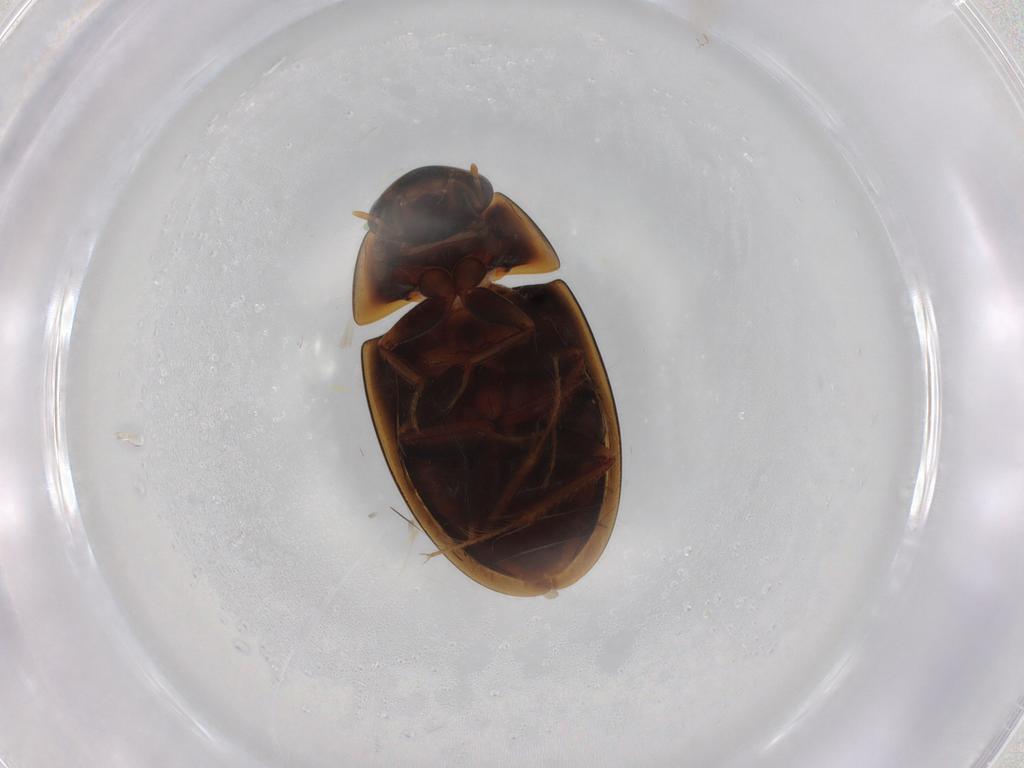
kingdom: Animalia
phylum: Arthropoda
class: Insecta
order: Coleoptera
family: Hydrophilidae
